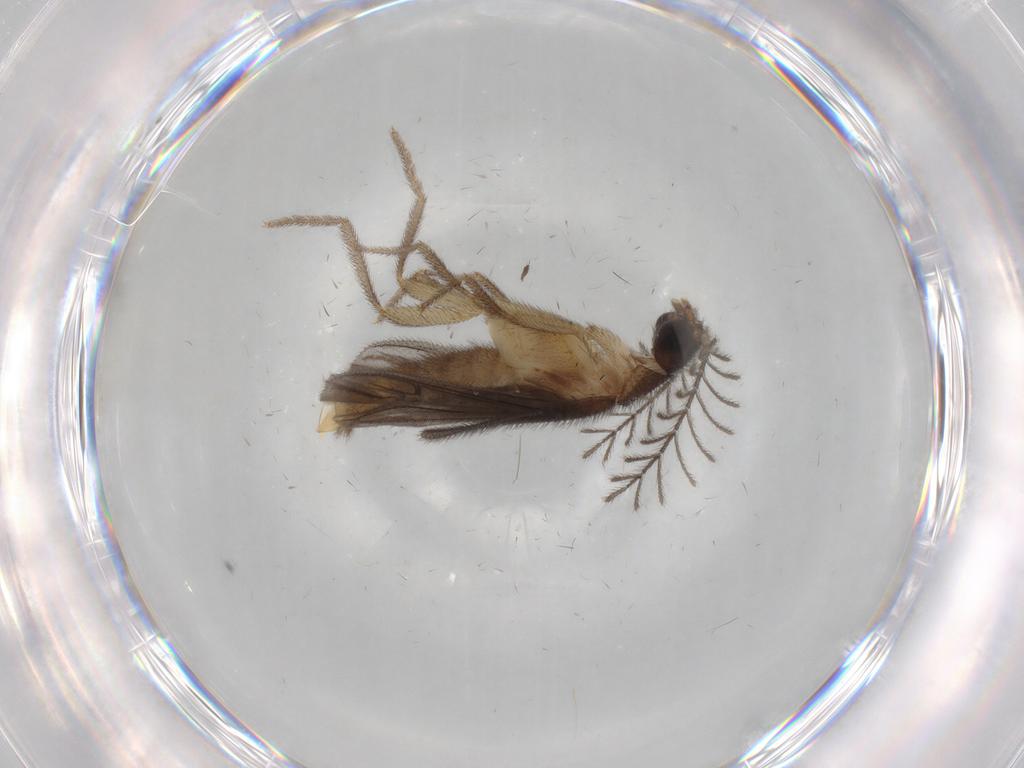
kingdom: Animalia
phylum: Arthropoda
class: Insecta
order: Coleoptera
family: Phengodidae
